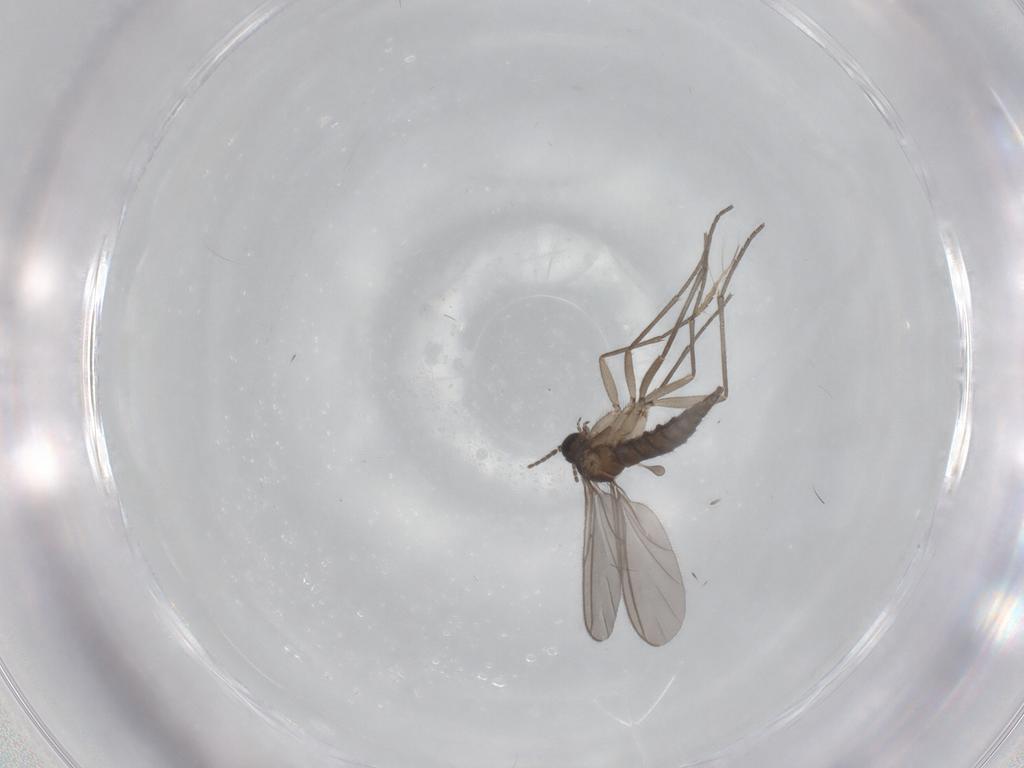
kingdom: Animalia
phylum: Arthropoda
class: Insecta
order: Diptera
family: Sciaridae
